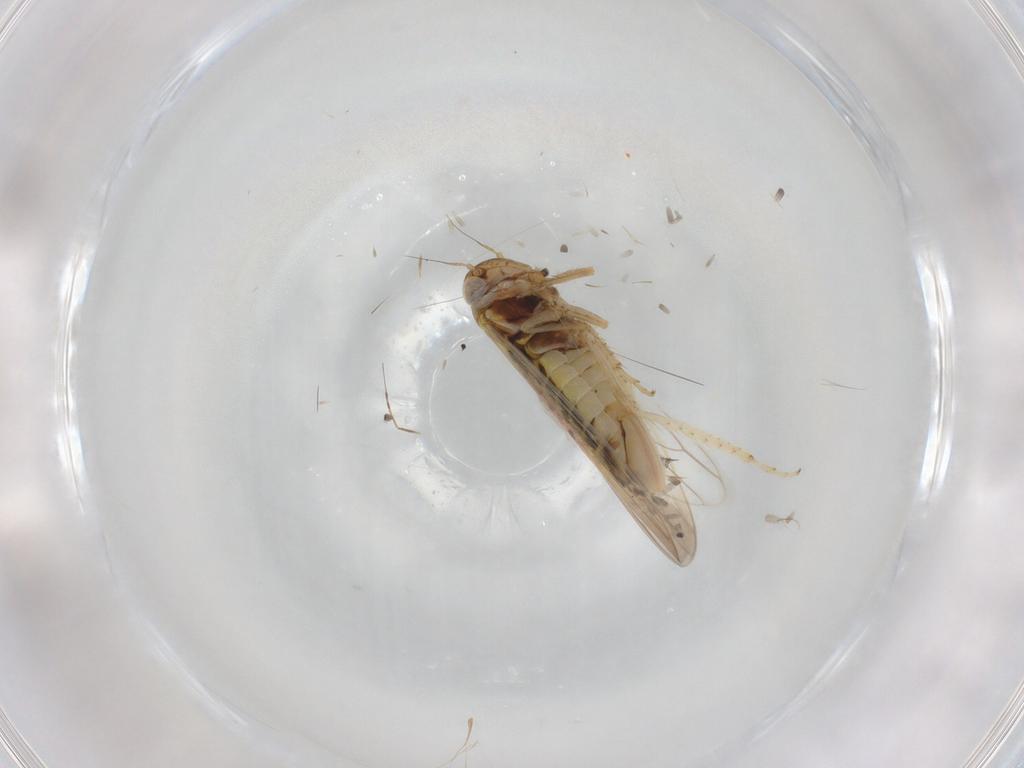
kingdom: Animalia
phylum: Arthropoda
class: Insecta
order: Hemiptera
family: Cicadellidae
